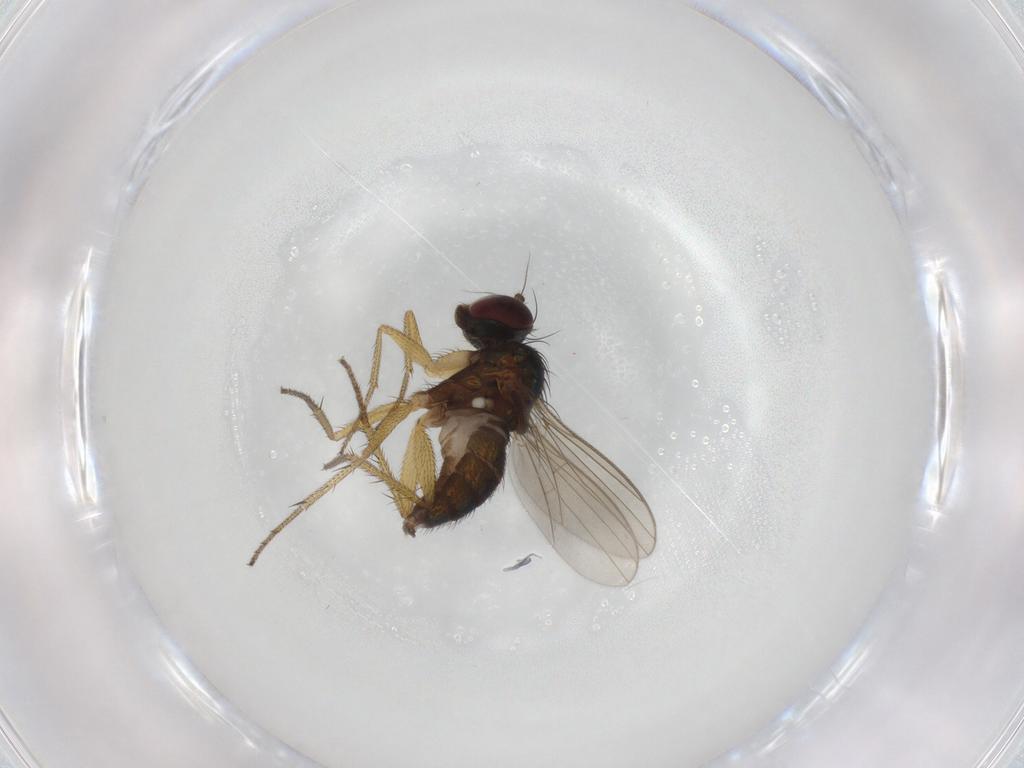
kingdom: Animalia
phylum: Arthropoda
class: Insecta
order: Diptera
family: Dolichopodidae
